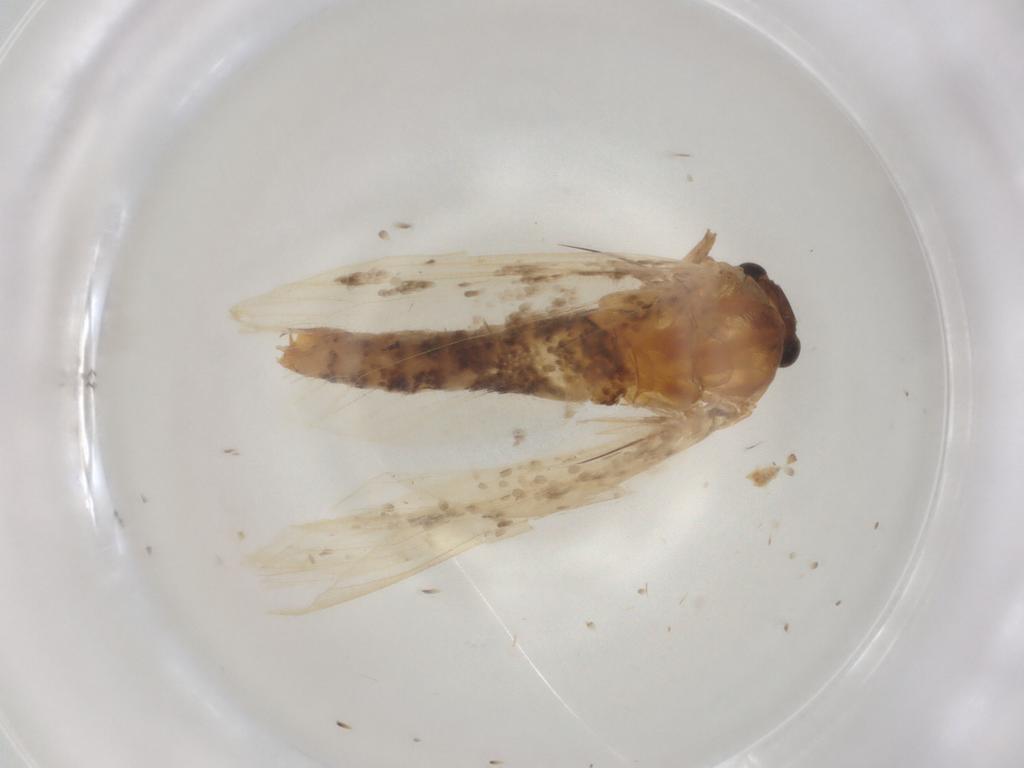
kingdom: Animalia
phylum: Arthropoda
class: Insecta
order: Lepidoptera
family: Nepticulidae
